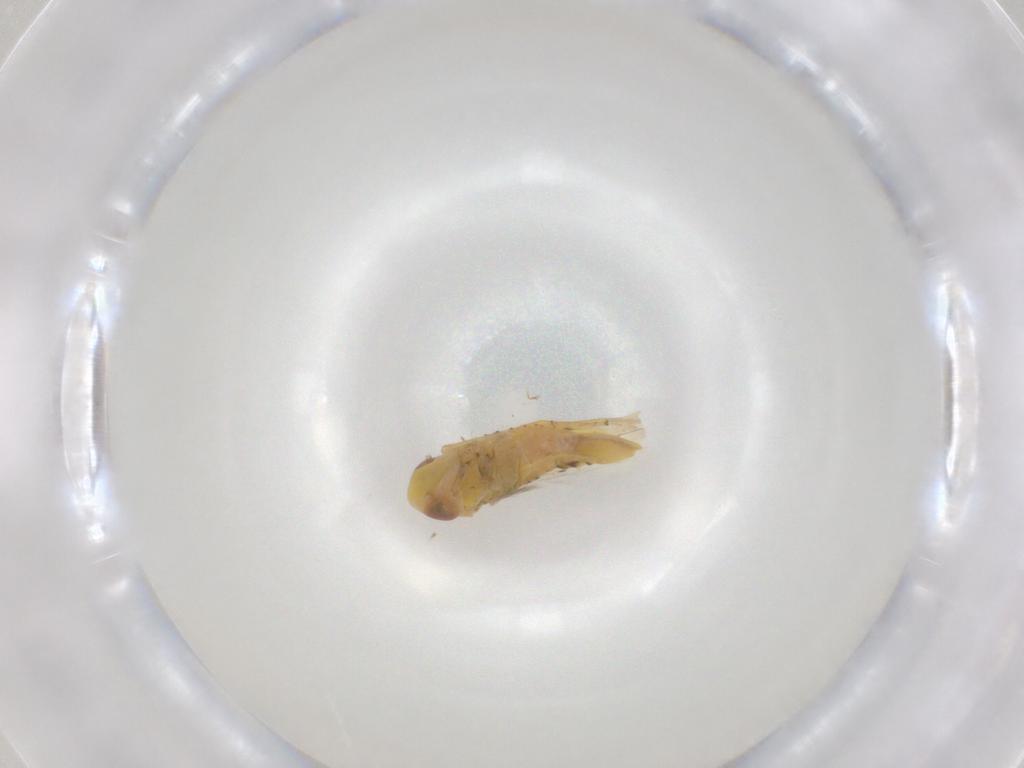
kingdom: Animalia
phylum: Arthropoda
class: Insecta
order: Hemiptera
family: Cicadellidae
